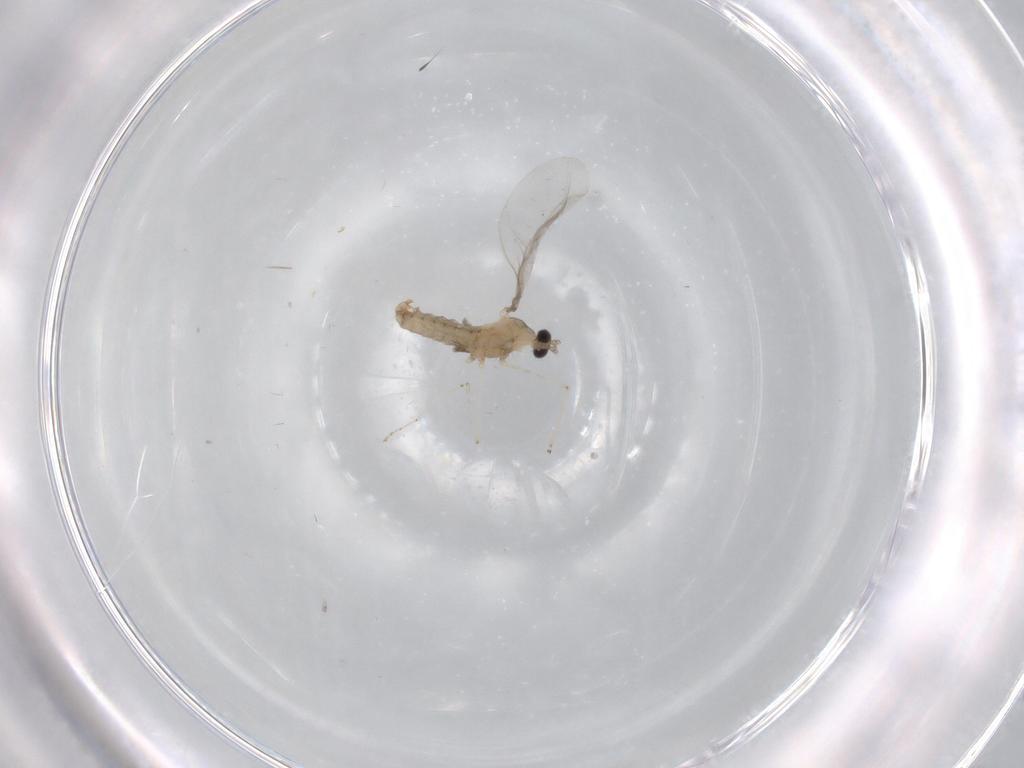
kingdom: Animalia
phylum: Arthropoda
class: Insecta
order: Diptera
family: Cecidomyiidae
